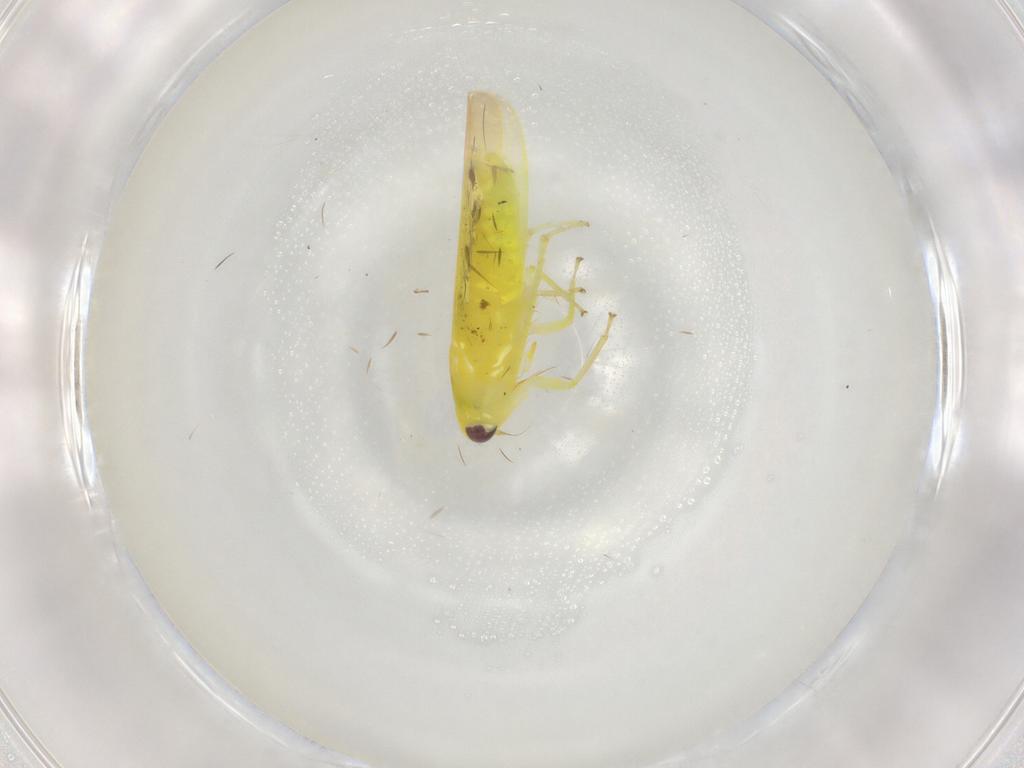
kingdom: Animalia
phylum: Arthropoda
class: Insecta
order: Hemiptera
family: Cicadellidae
